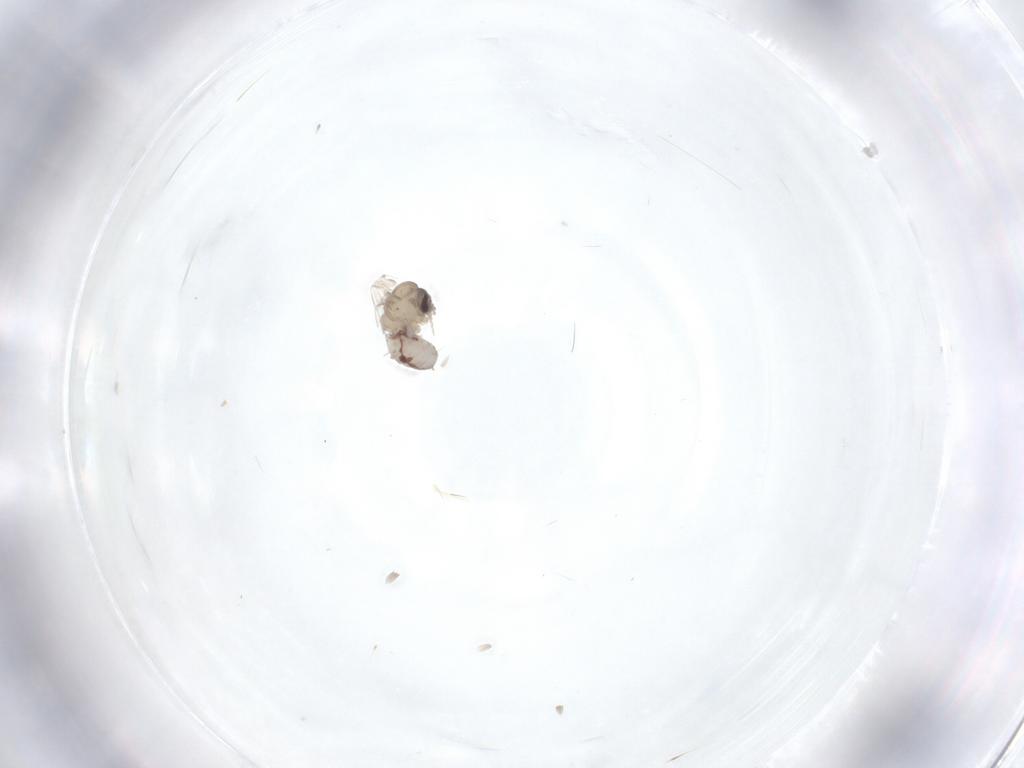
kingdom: Animalia
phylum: Arthropoda
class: Insecta
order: Diptera
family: Psychodidae
